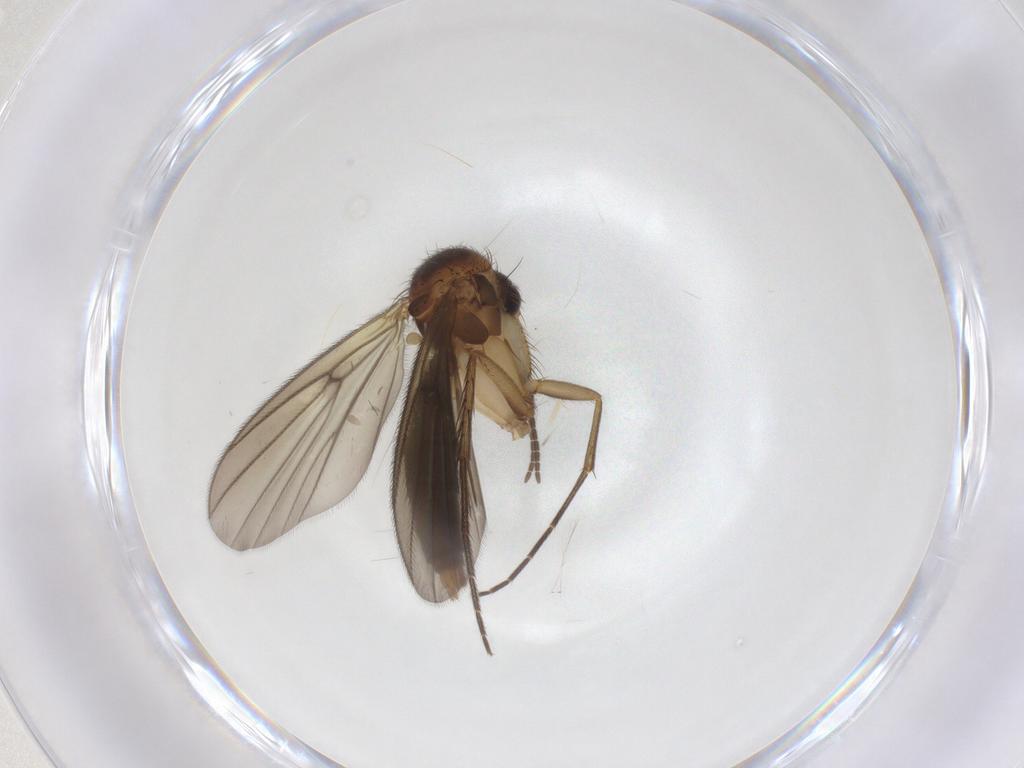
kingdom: Animalia
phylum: Arthropoda
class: Insecta
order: Diptera
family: Mycetophilidae
